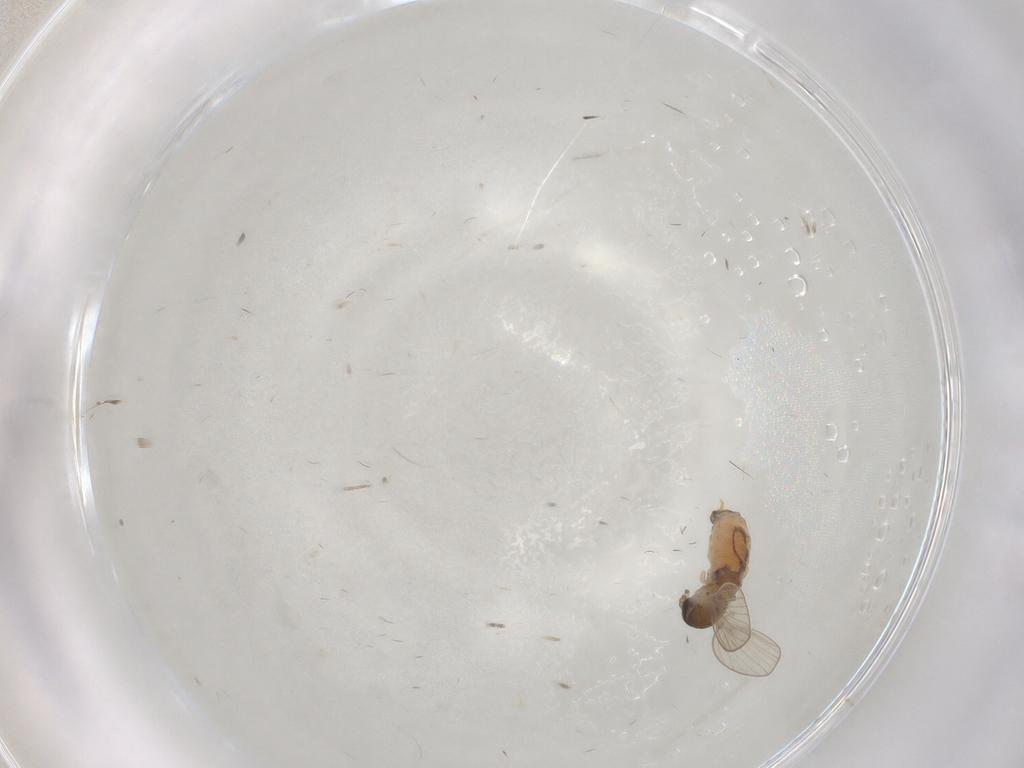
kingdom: Animalia
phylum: Arthropoda
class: Insecta
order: Diptera
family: Psychodidae
